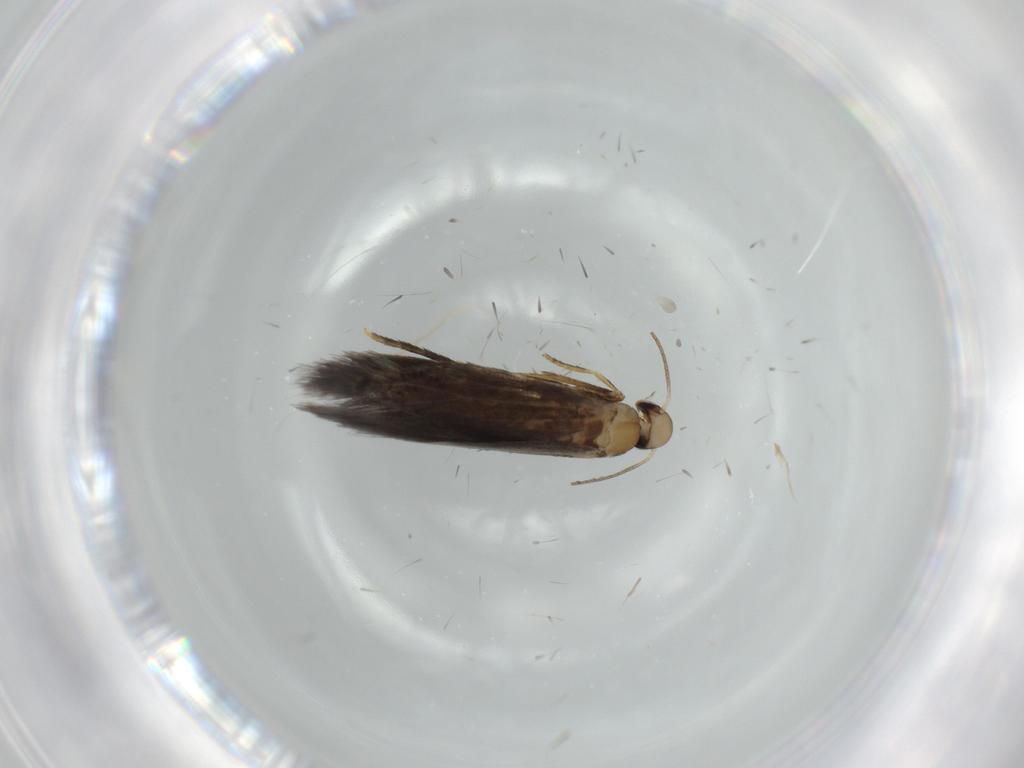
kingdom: Animalia
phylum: Arthropoda
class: Insecta
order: Lepidoptera
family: Heliozelidae
